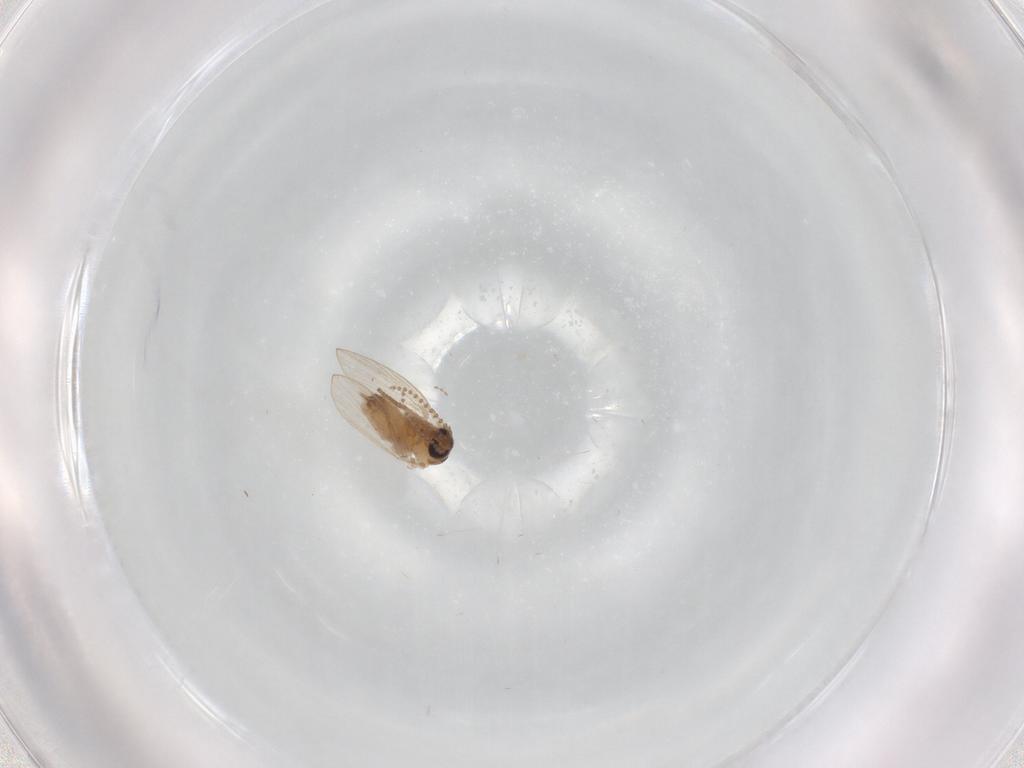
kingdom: Animalia
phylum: Arthropoda
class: Insecta
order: Diptera
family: Psychodidae
